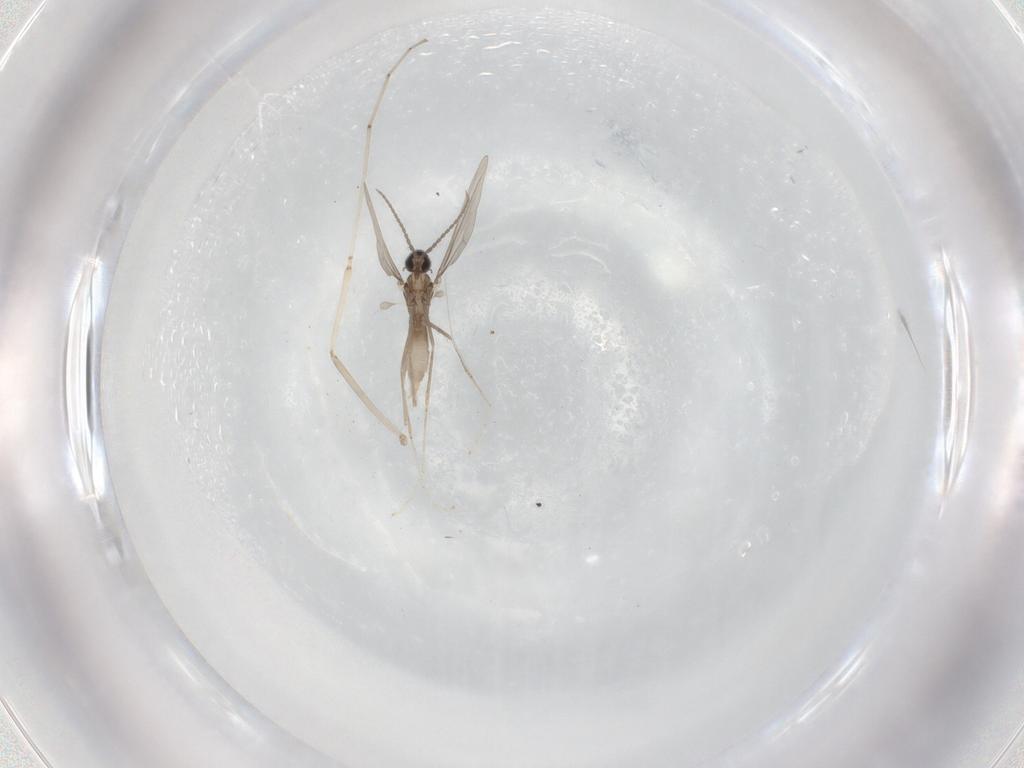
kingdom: Animalia
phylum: Arthropoda
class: Insecta
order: Diptera
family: Cecidomyiidae
